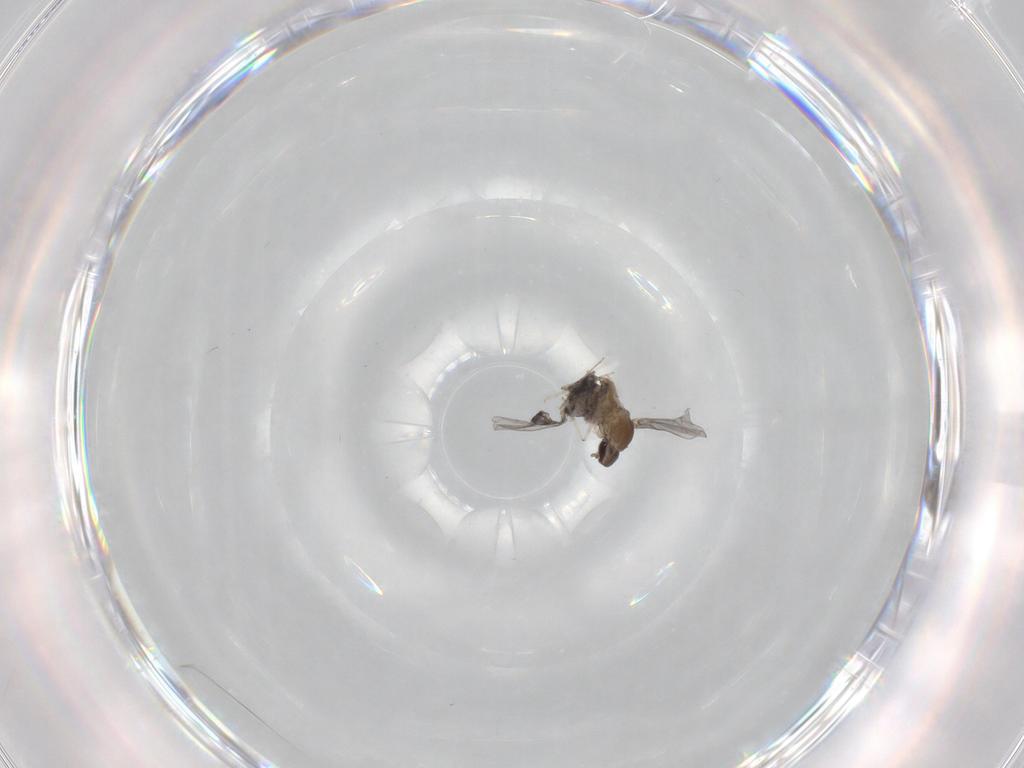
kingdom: Animalia
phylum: Arthropoda
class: Insecta
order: Diptera
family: Cecidomyiidae
